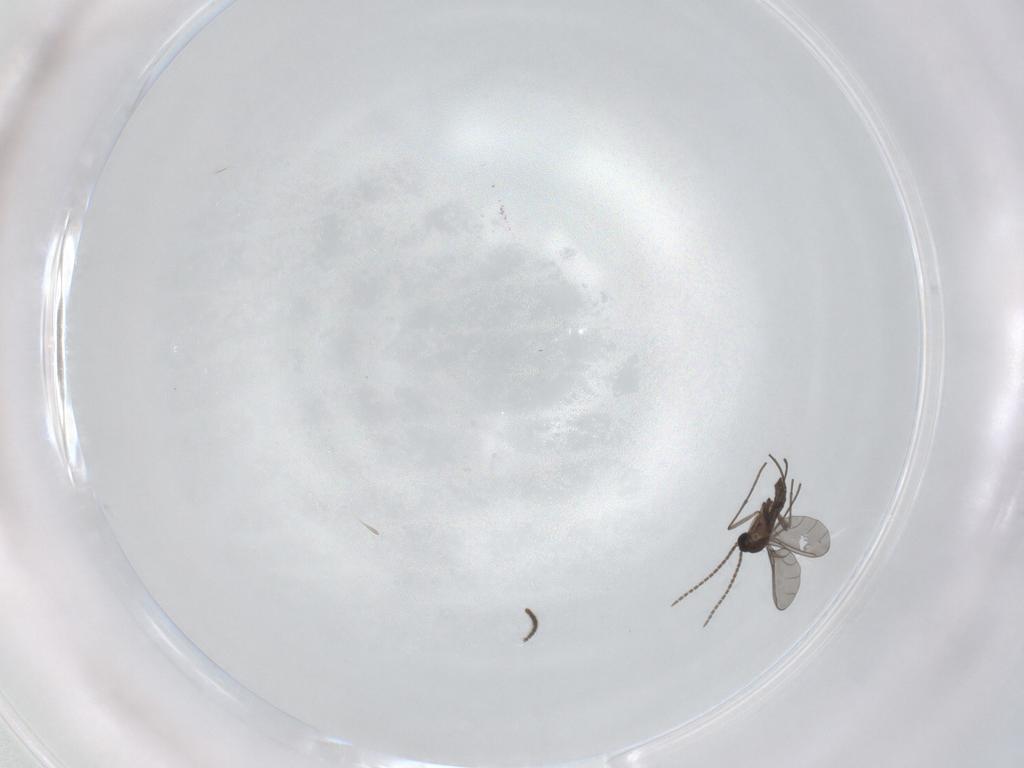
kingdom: Animalia
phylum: Arthropoda
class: Insecta
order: Diptera
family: Sciaridae
